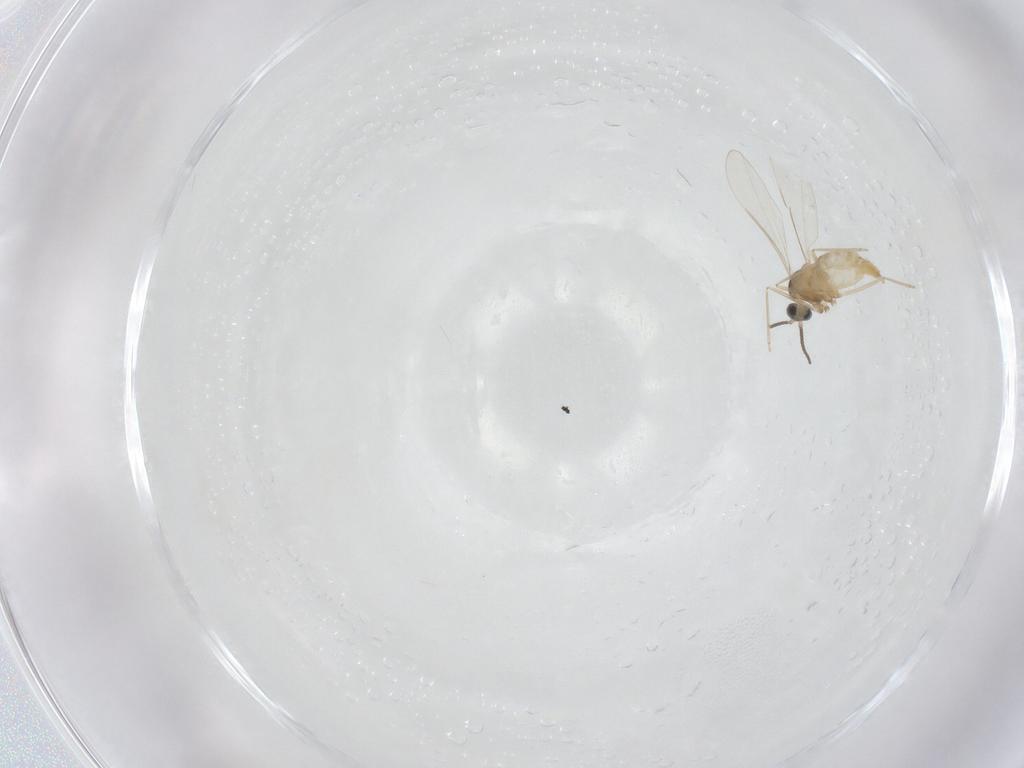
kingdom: Animalia
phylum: Arthropoda
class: Insecta
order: Diptera
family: Cecidomyiidae
